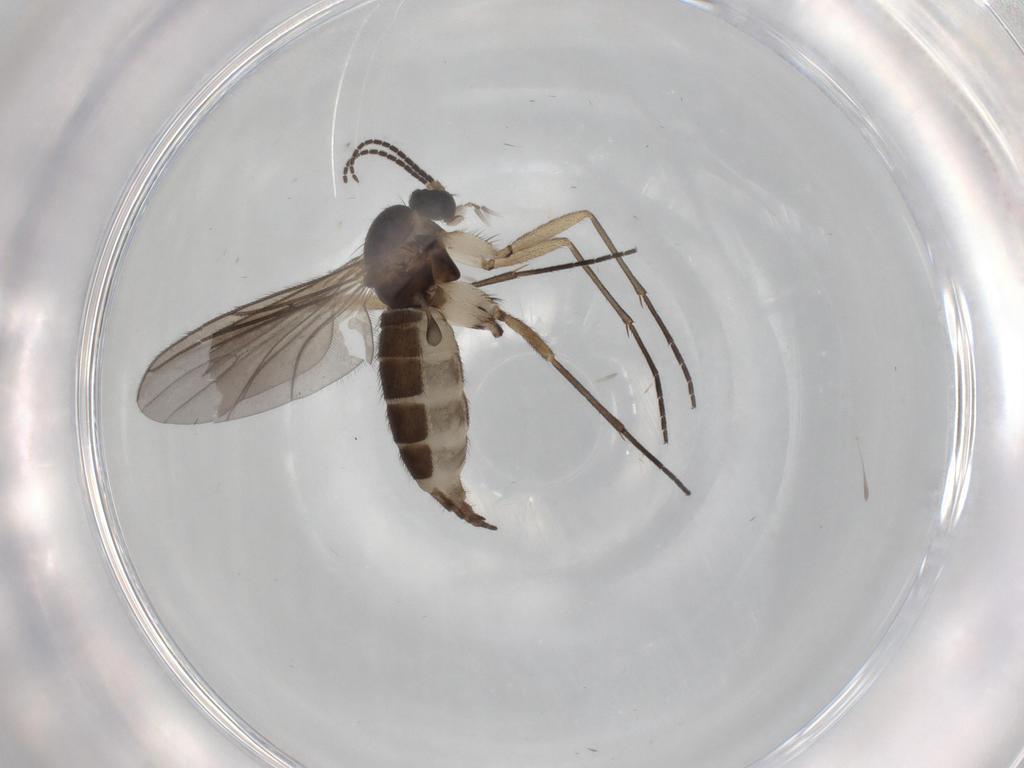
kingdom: Animalia
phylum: Arthropoda
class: Insecta
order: Diptera
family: Sciaridae
